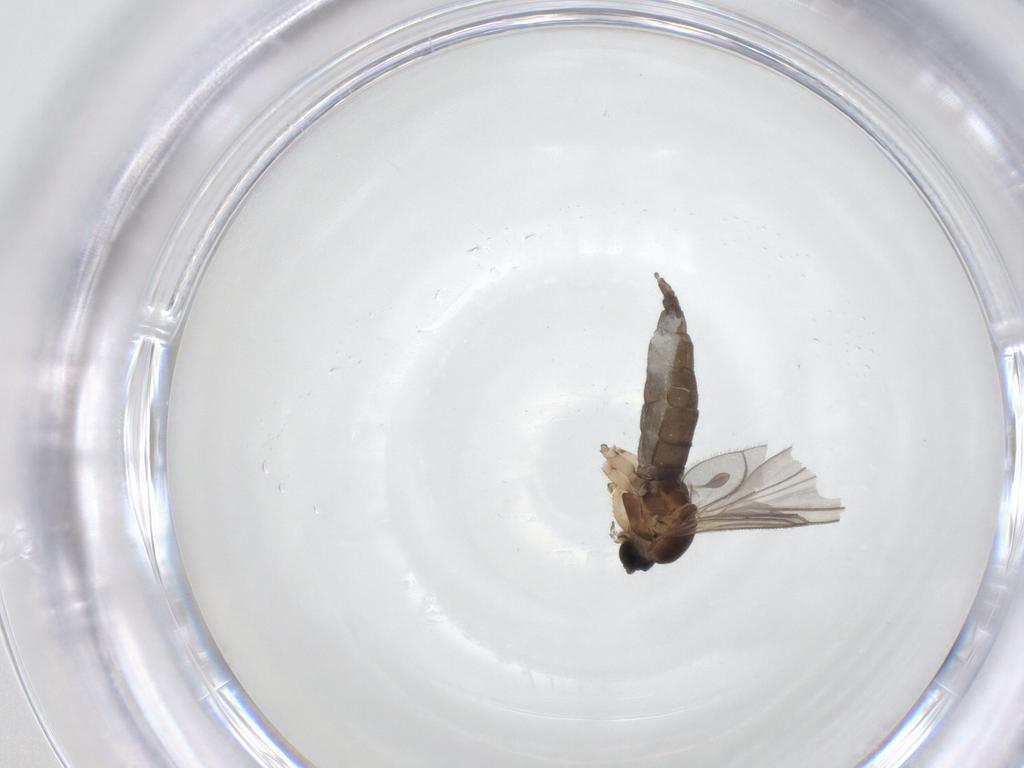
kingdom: Animalia
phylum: Arthropoda
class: Insecta
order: Diptera
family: Sciaridae
